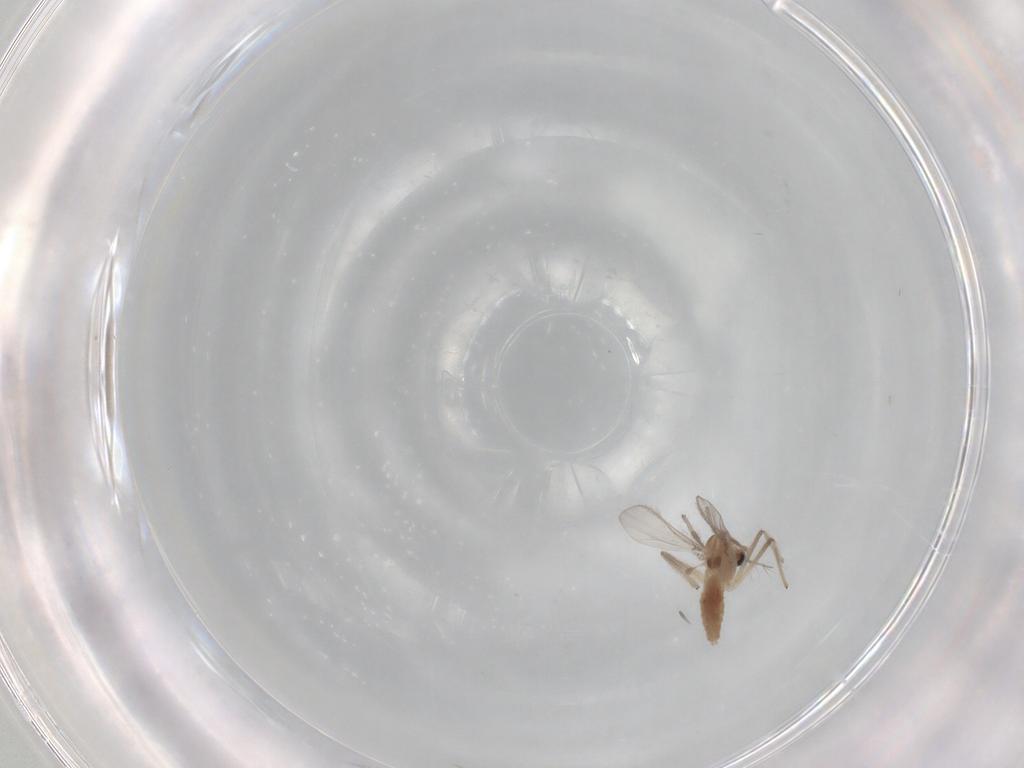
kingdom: Animalia
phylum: Arthropoda
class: Insecta
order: Diptera
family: Chironomidae
